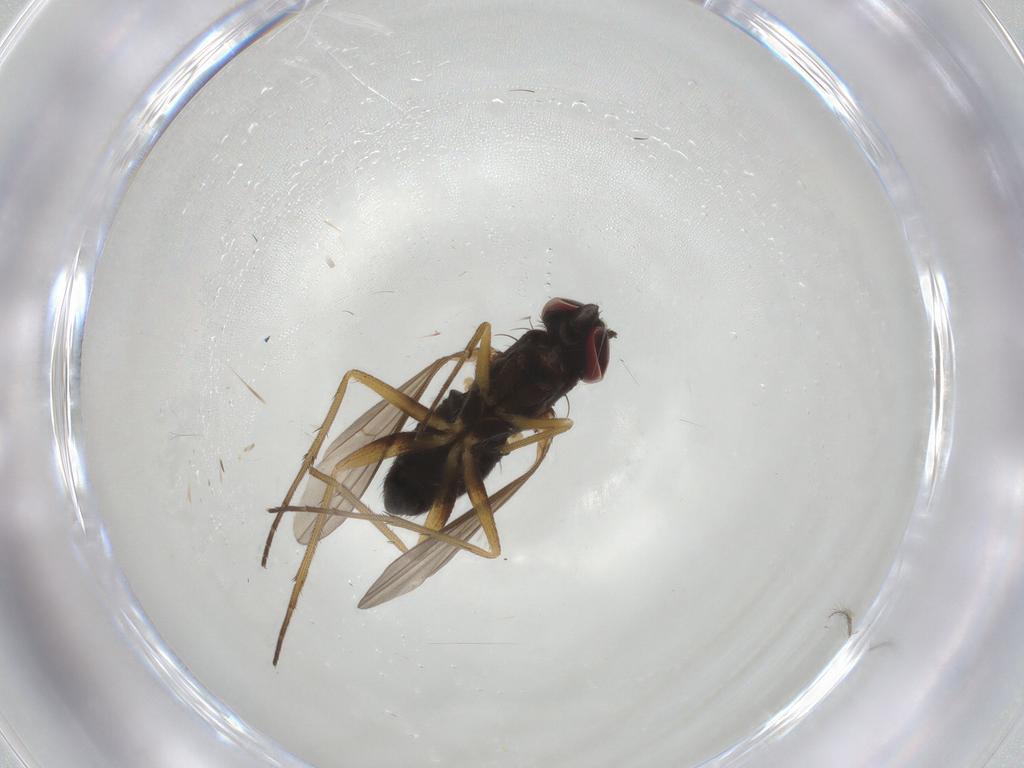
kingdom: Animalia
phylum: Arthropoda
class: Insecta
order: Diptera
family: Dolichopodidae
